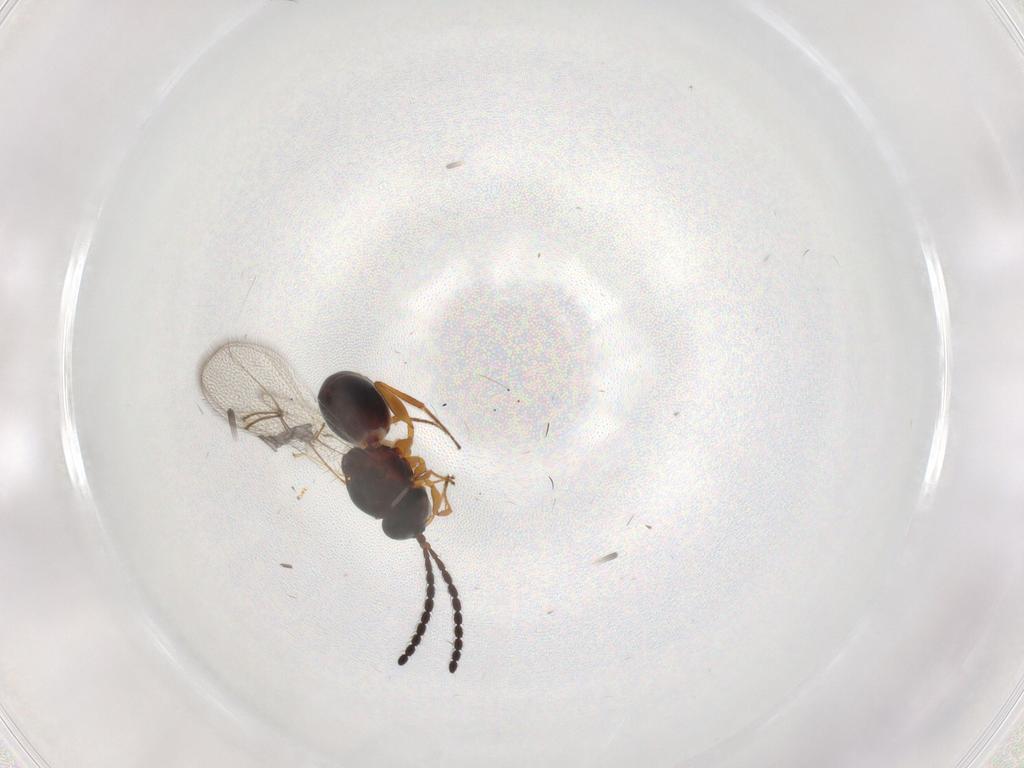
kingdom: Animalia
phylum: Arthropoda
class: Insecta
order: Hymenoptera
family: Figitidae
